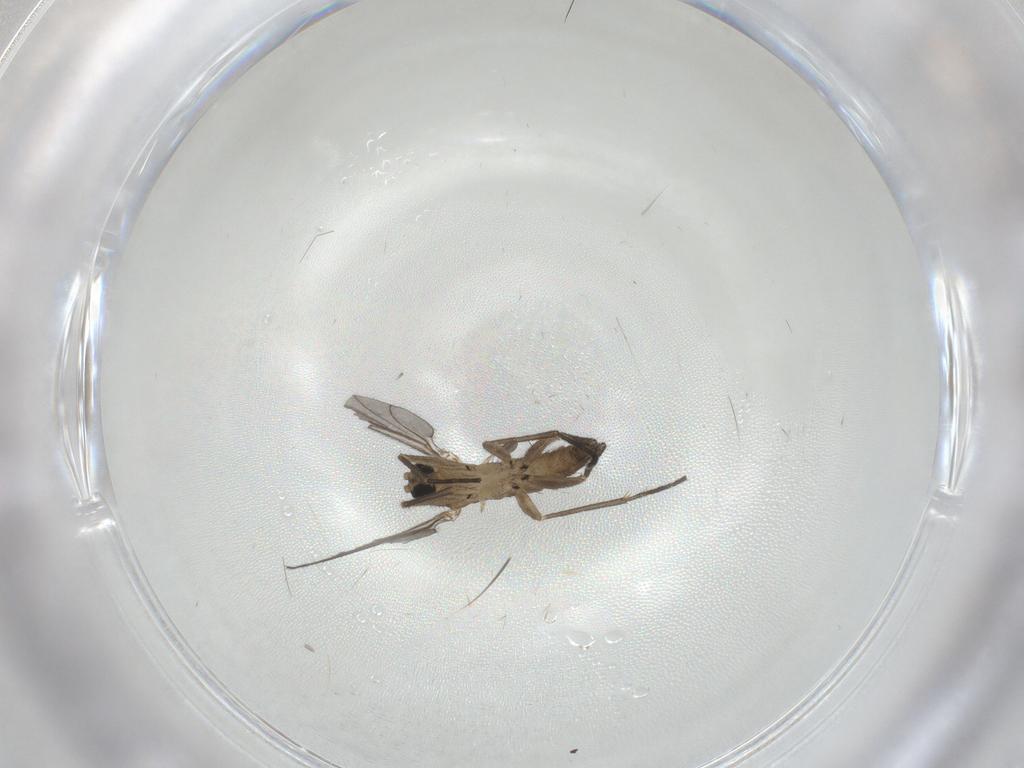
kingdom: Animalia
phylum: Arthropoda
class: Insecta
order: Diptera
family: Sciaridae
